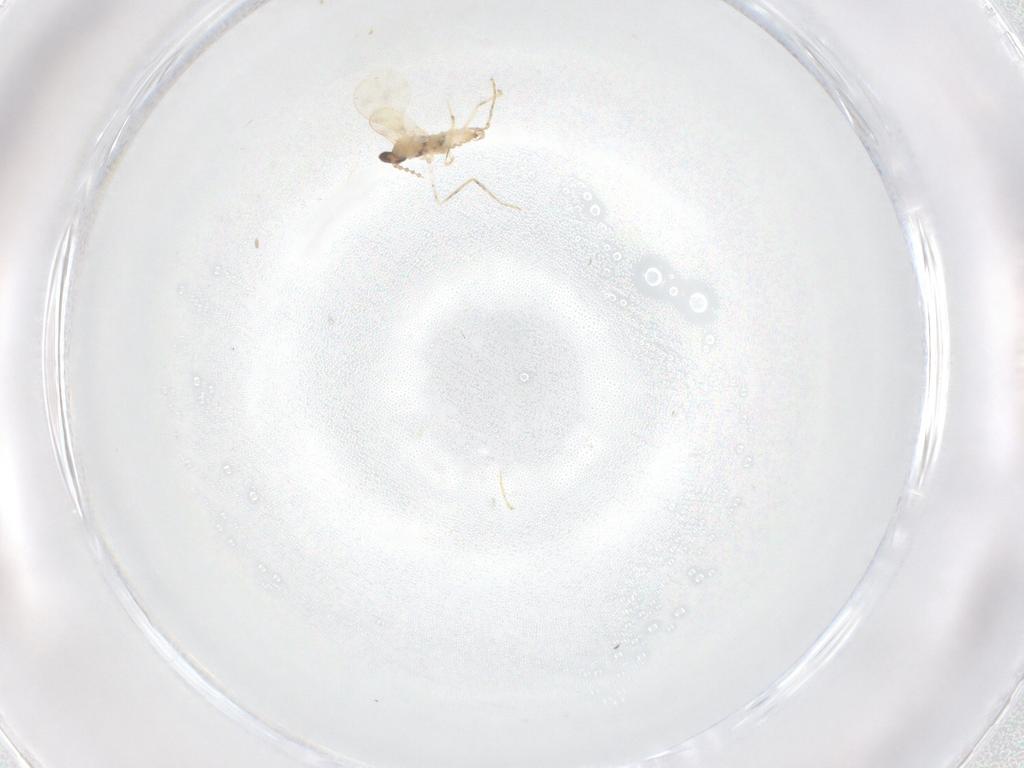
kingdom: Animalia
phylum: Arthropoda
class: Insecta
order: Diptera
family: Cecidomyiidae
